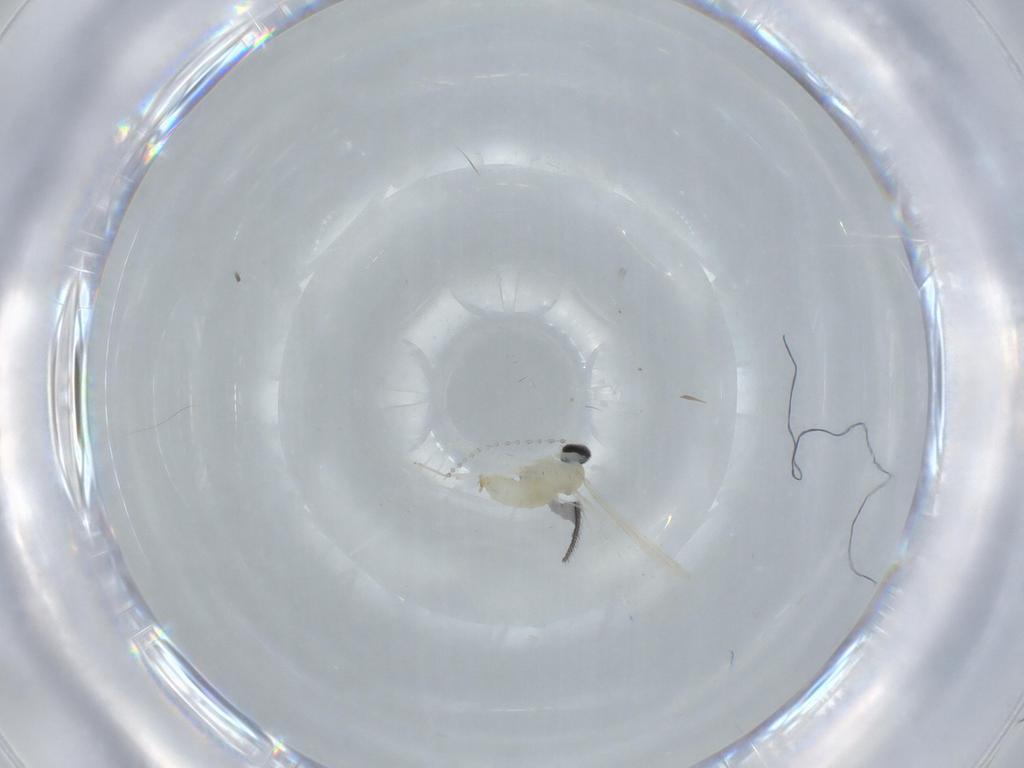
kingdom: Animalia
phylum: Arthropoda
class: Insecta
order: Diptera
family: Cecidomyiidae
